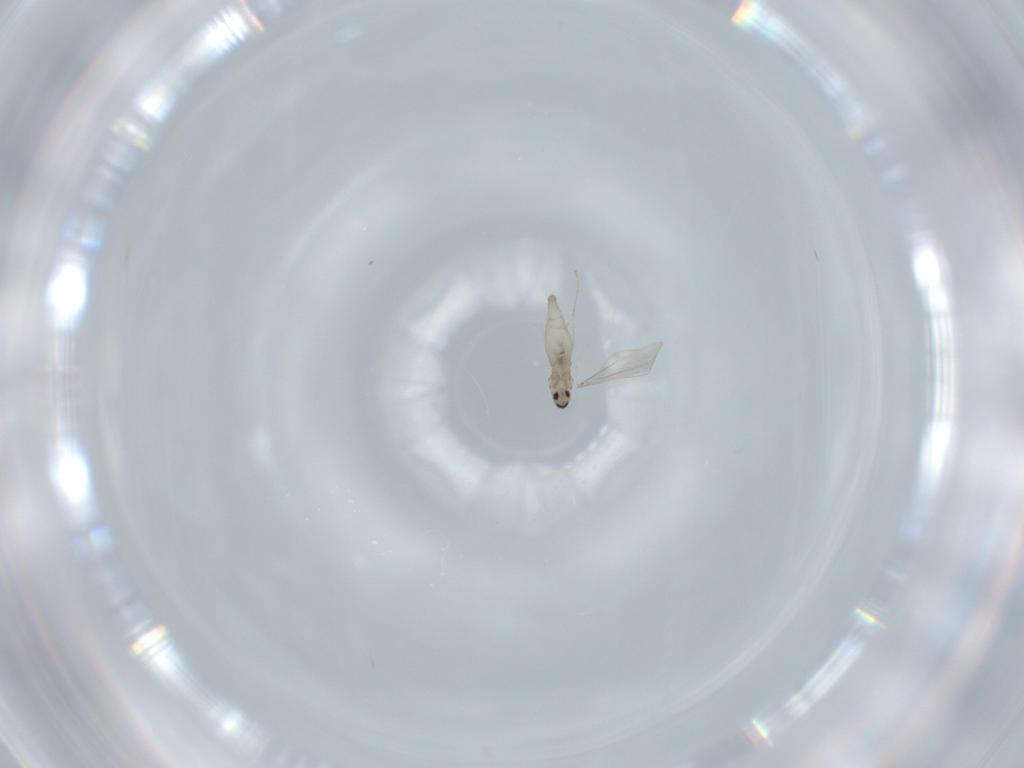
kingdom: Animalia
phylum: Arthropoda
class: Insecta
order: Diptera
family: Cecidomyiidae
